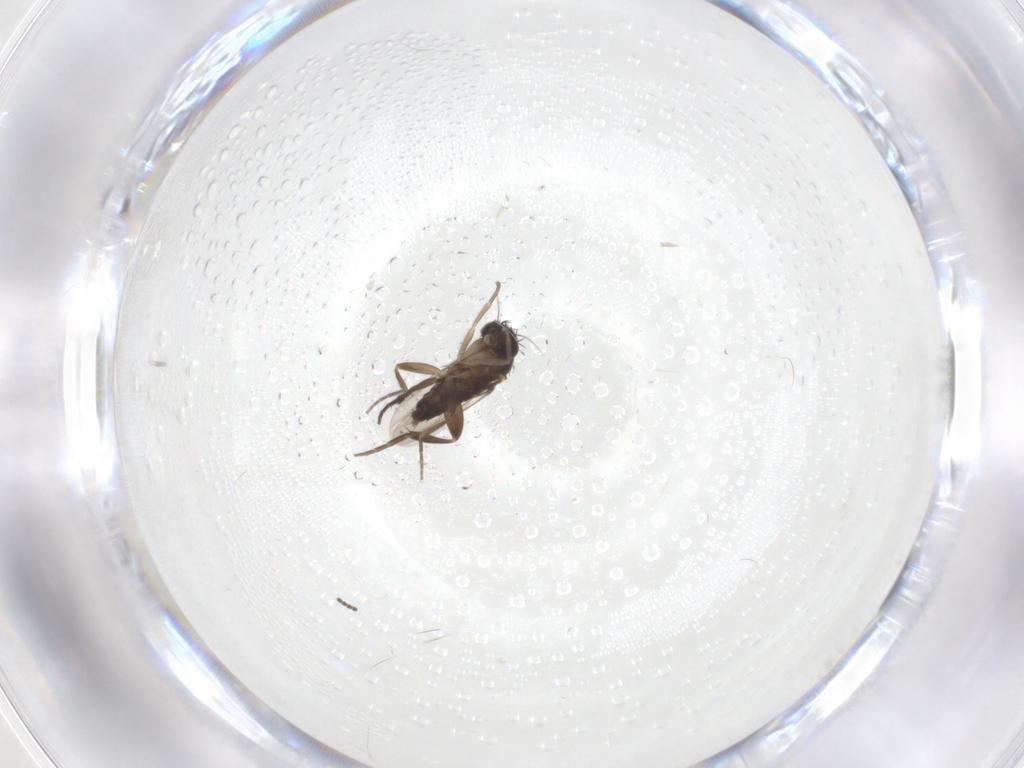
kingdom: Animalia
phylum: Arthropoda
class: Insecta
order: Diptera
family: Phoridae
